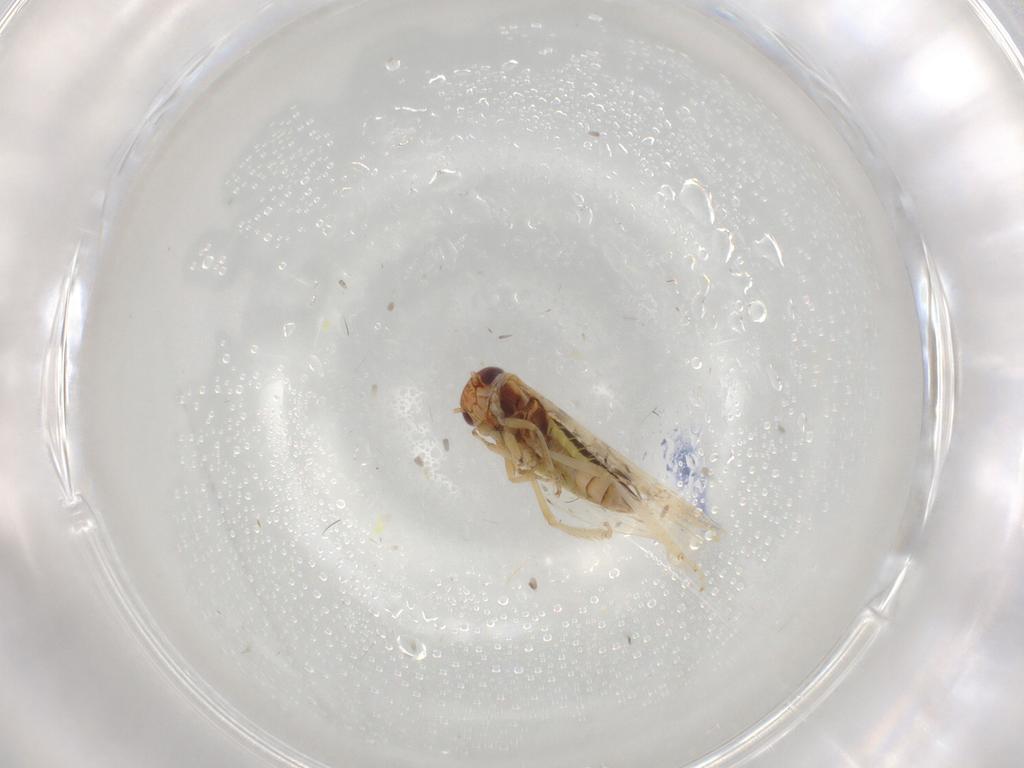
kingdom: Animalia
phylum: Arthropoda
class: Insecta
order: Hemiptera
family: Cicadellidae
